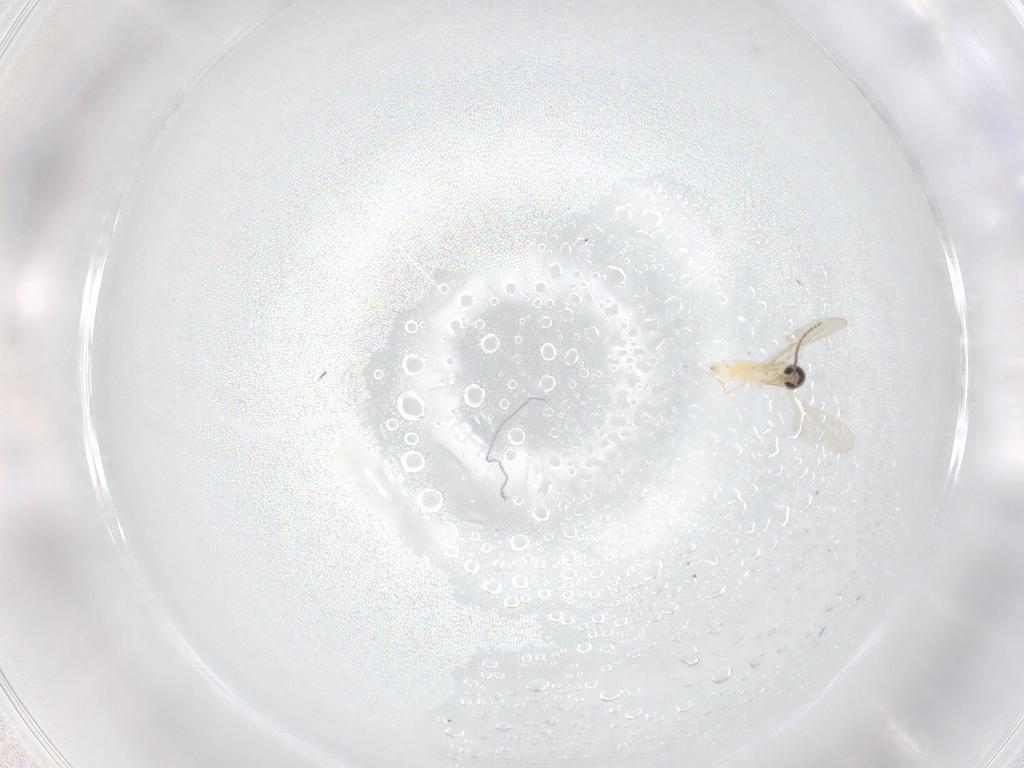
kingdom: Animalia
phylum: Arthropoda
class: Insecta
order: Diptera
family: Cecidomyiidae
